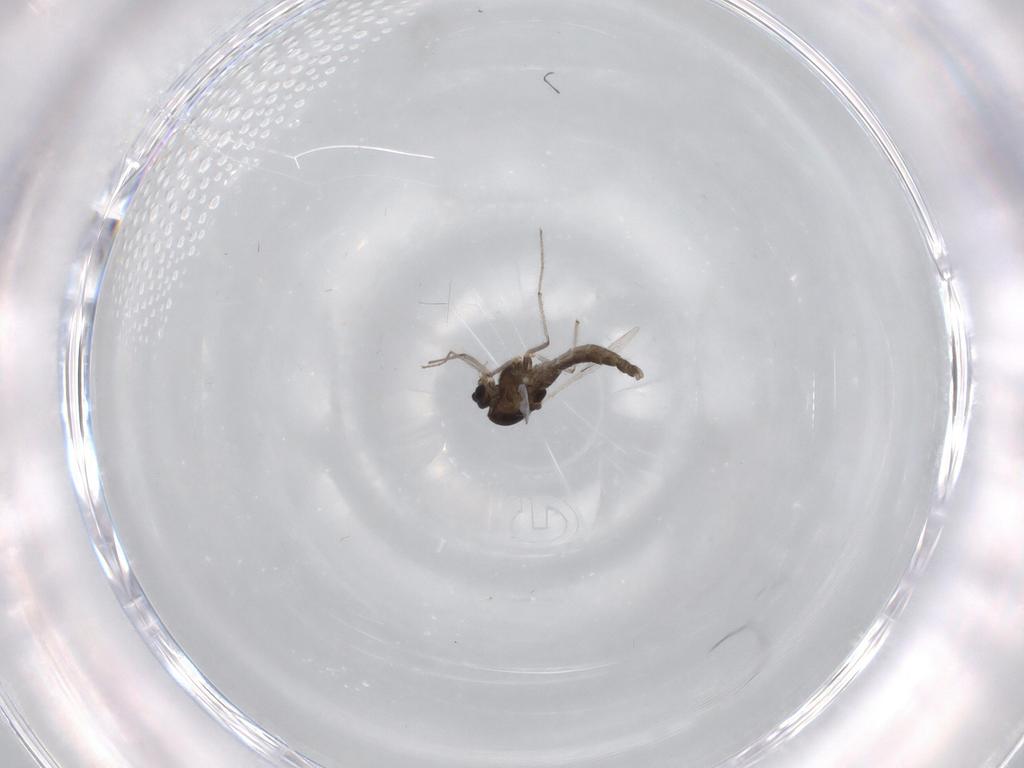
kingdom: Animalia
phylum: Arthropoda
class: Insecta
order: Diptera
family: Chironomidae
